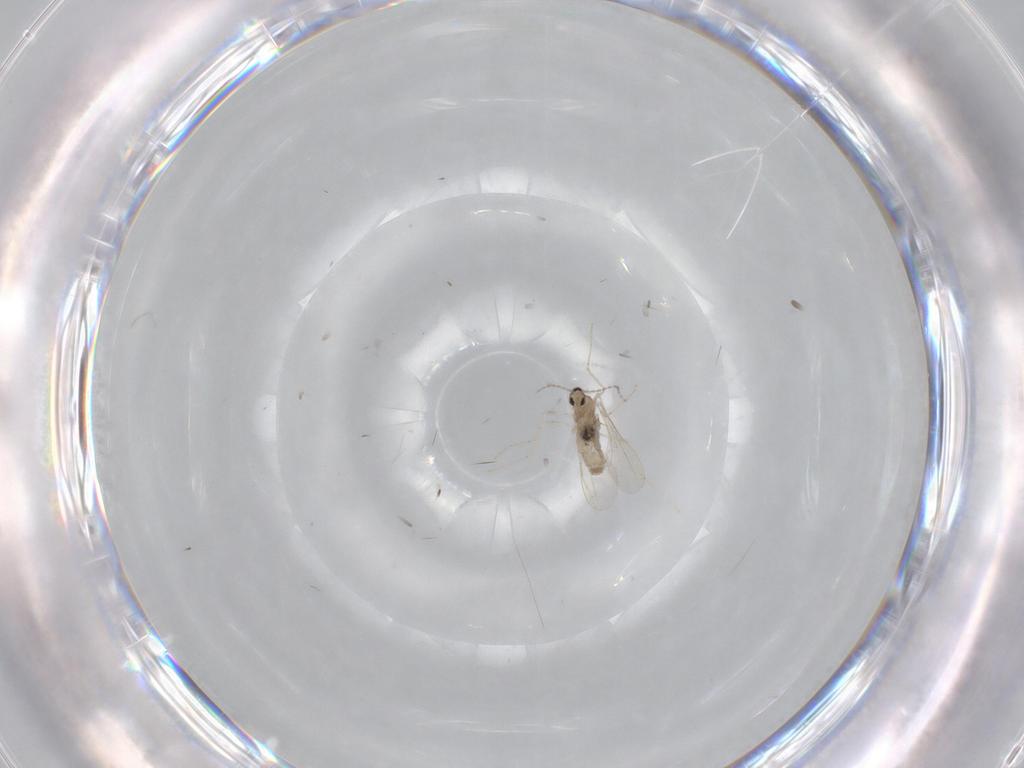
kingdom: Animalia
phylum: Arthropoda
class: Insecta
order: Diptera
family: Cecidomyiidae
